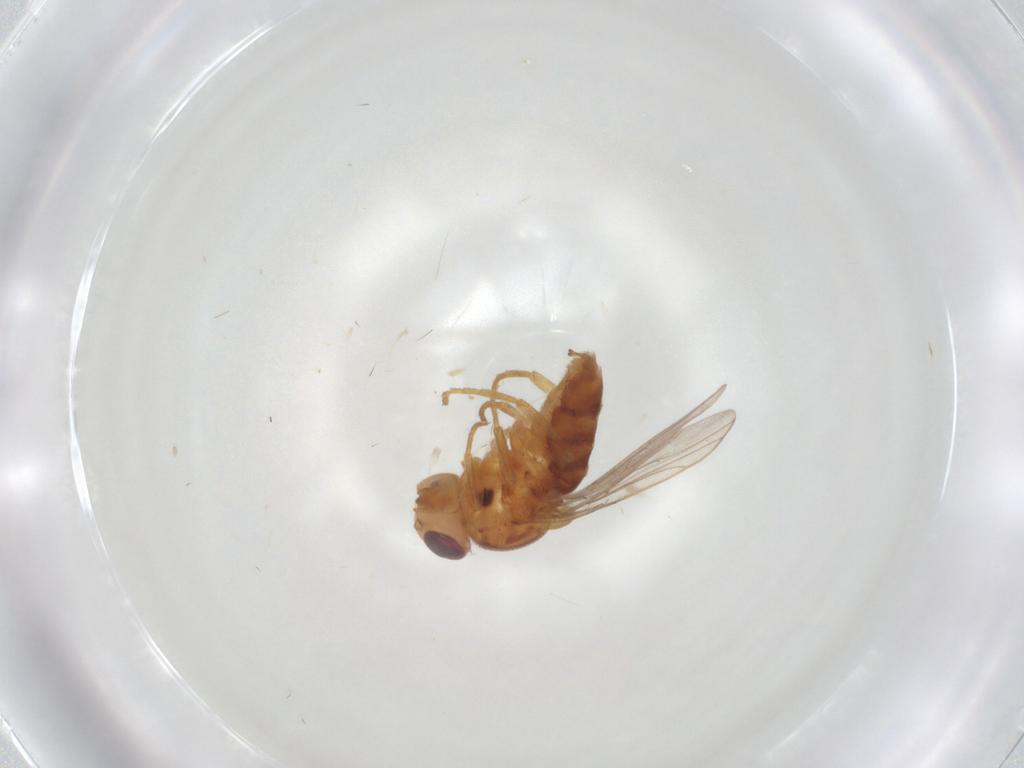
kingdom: Animalia
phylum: Arthropoda
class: Insecta
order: Diptera
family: Chloropidae
